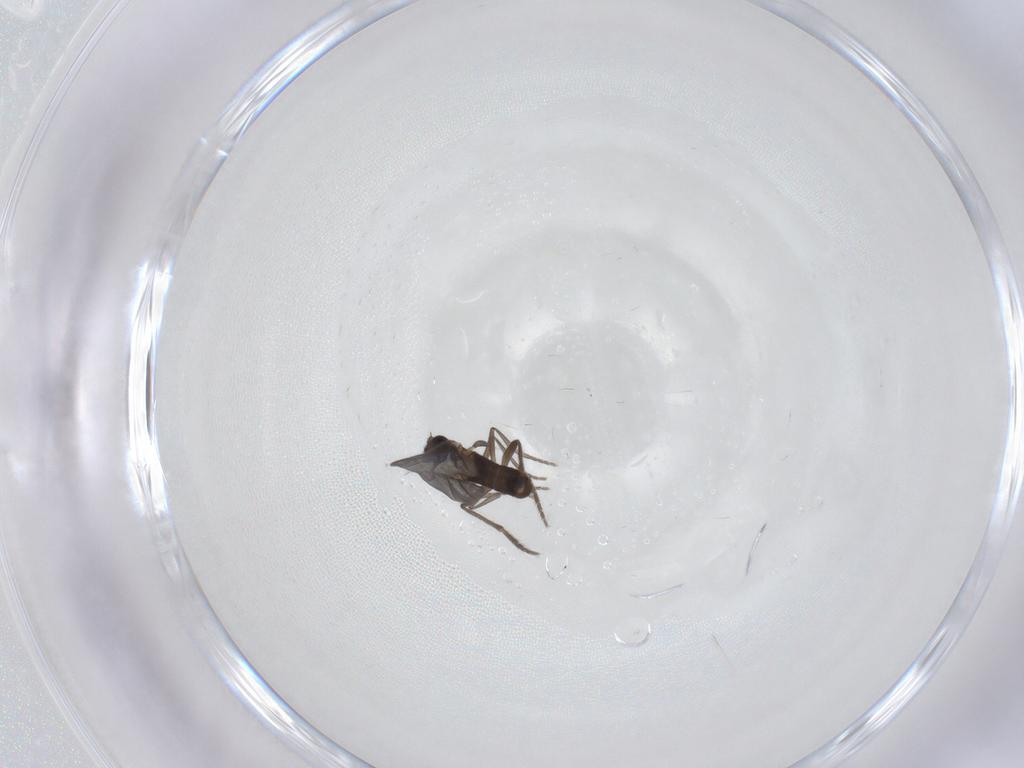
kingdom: Animalia
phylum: Arthropoda
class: Insecta
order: Diptera
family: Phoridae
